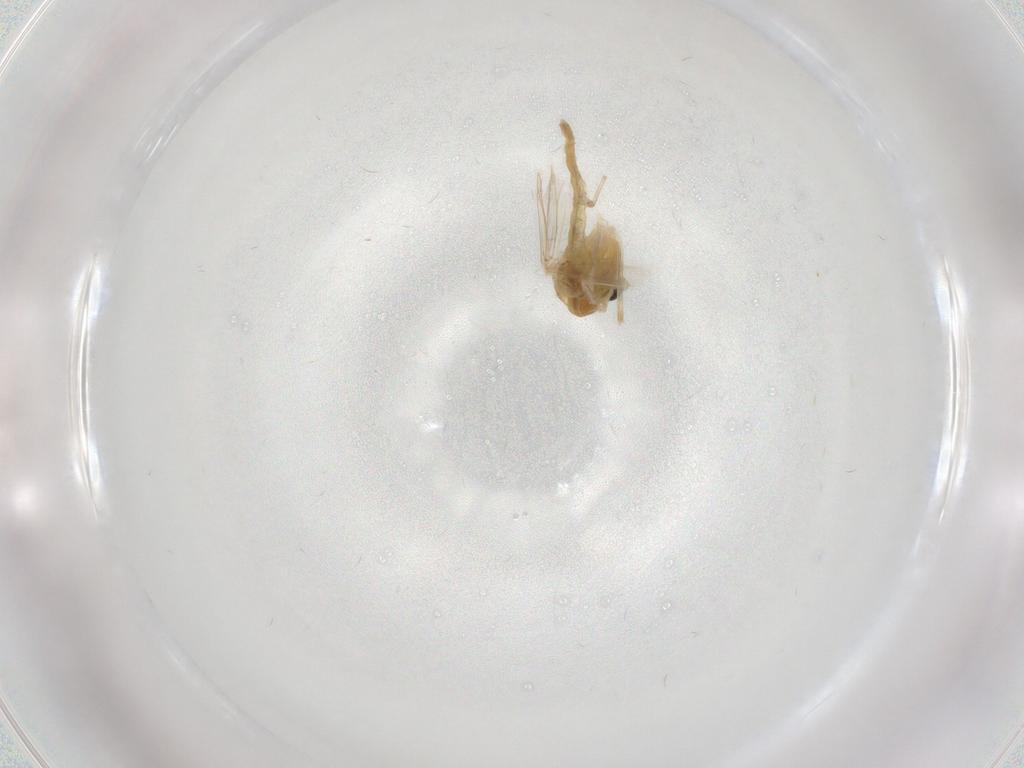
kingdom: Animalia
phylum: Arthropoda
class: Insecta
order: Diptera
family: Chironomidae
